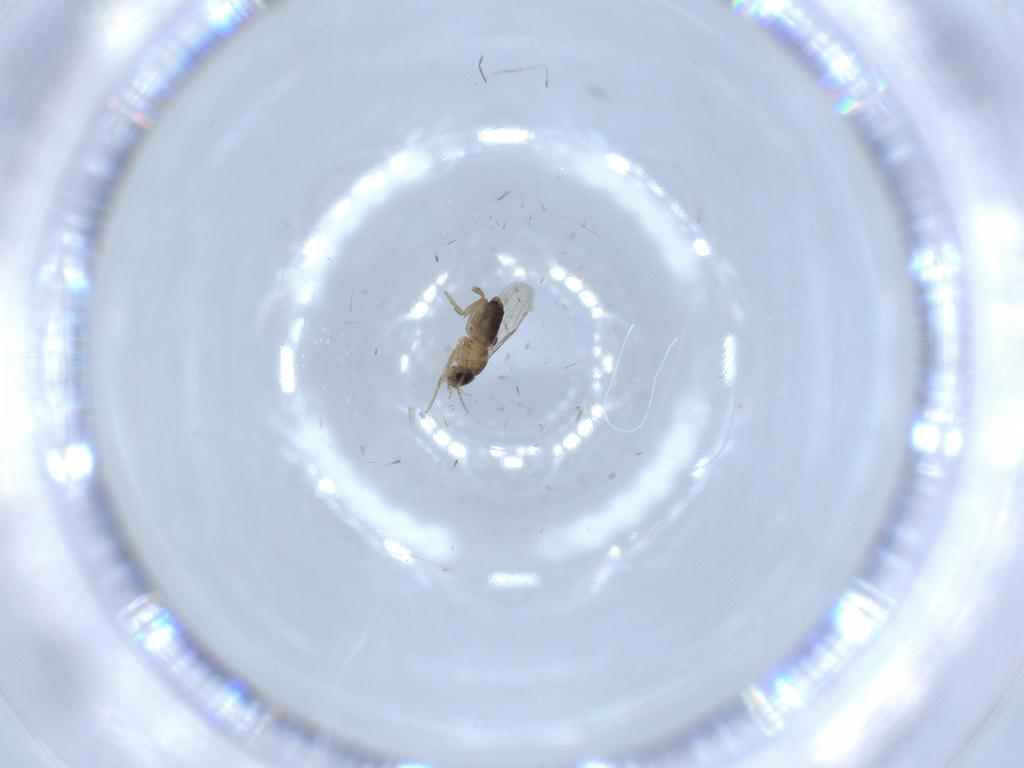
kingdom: Animalia
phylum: Arthropoda
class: Insecta
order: Diptera
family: Phoridae
